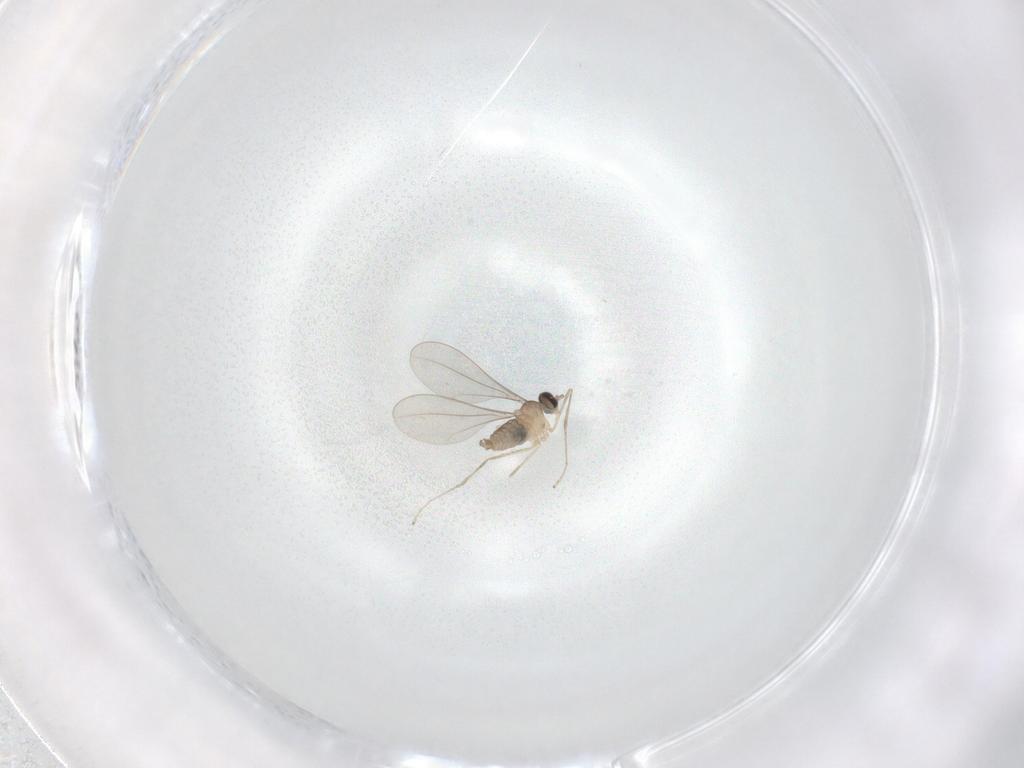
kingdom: Animalia
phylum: Arthropoda
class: Insecta
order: Diptera
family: Cecidomyiidae
